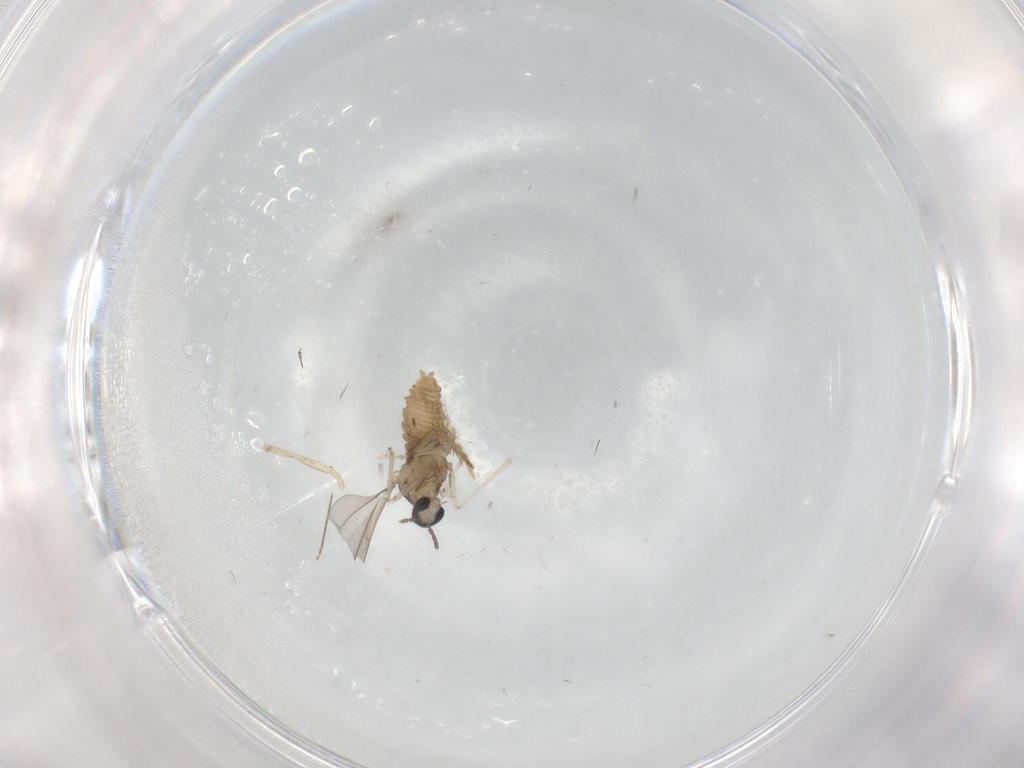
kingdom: Animalia
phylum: Arthropoda
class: Insecta
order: Diptera
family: Cecidomyiidae
